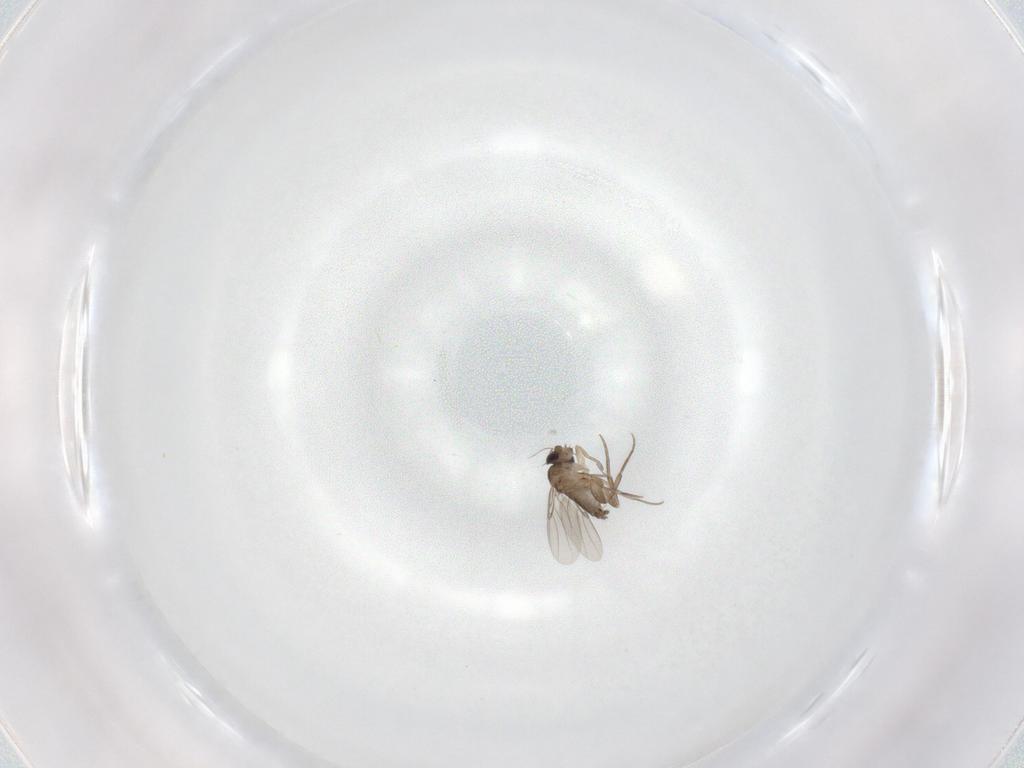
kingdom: Animalia
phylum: Arthropoda
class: Insecta
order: Diptera
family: Phoridae
